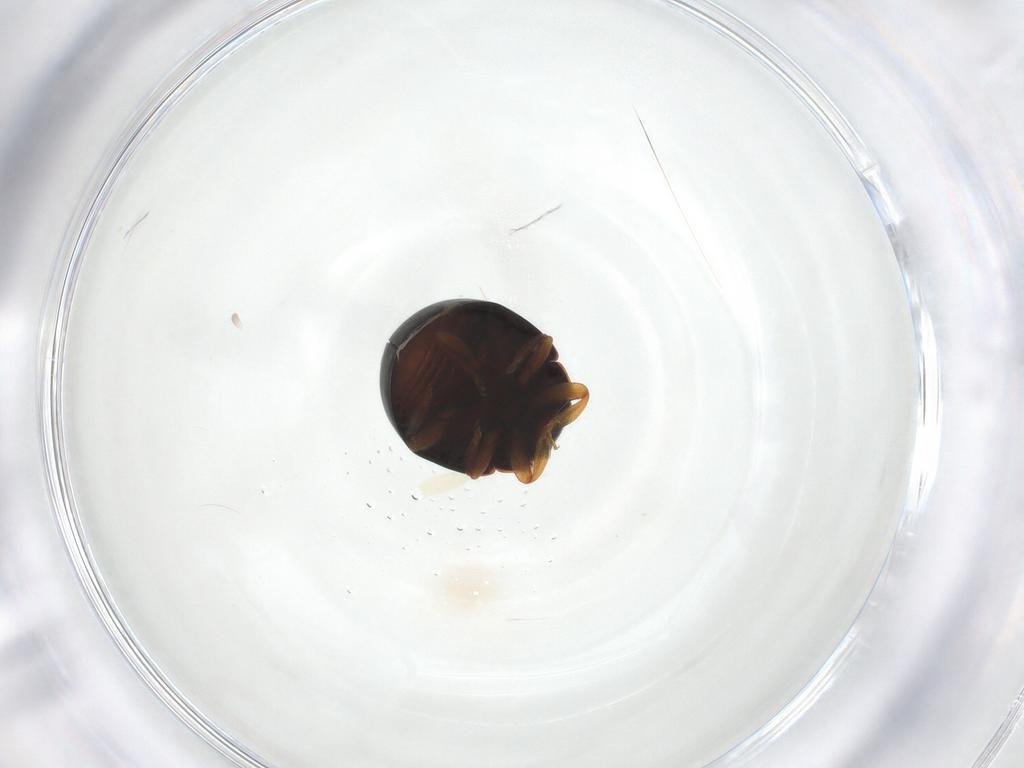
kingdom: Animalia
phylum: Arthropoda
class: Insecta
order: Coleoptera
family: Coccinellidae
